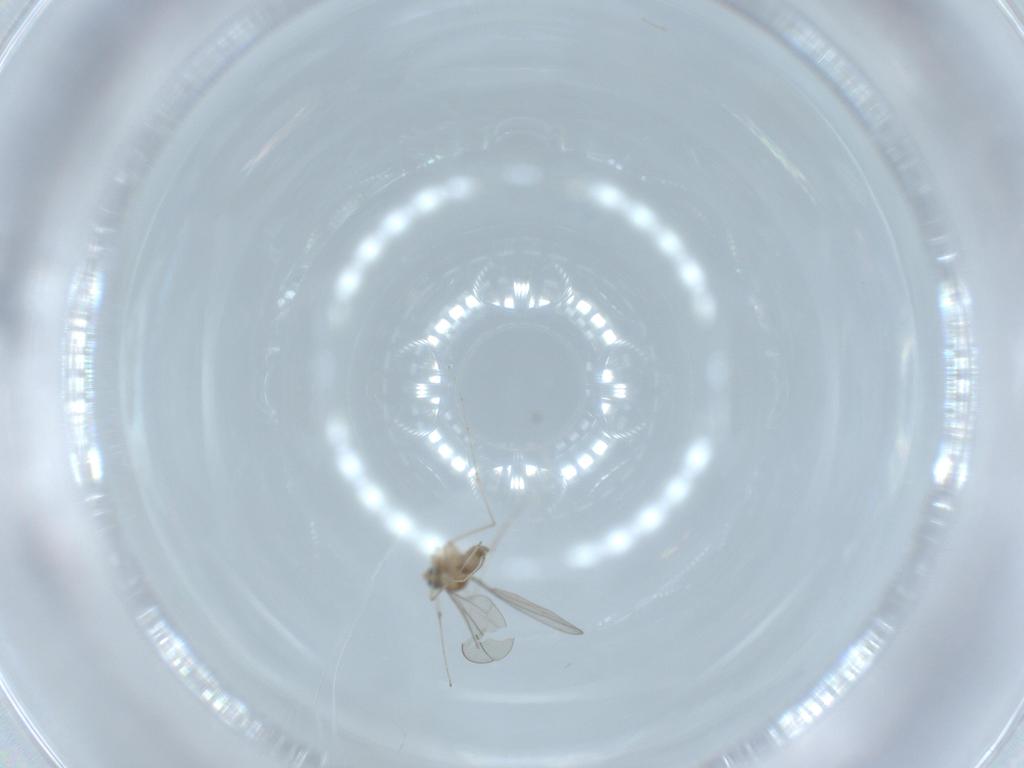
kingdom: Animalia
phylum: Arthropoda
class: Insecta
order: Diptera
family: Cecidomyiidae
